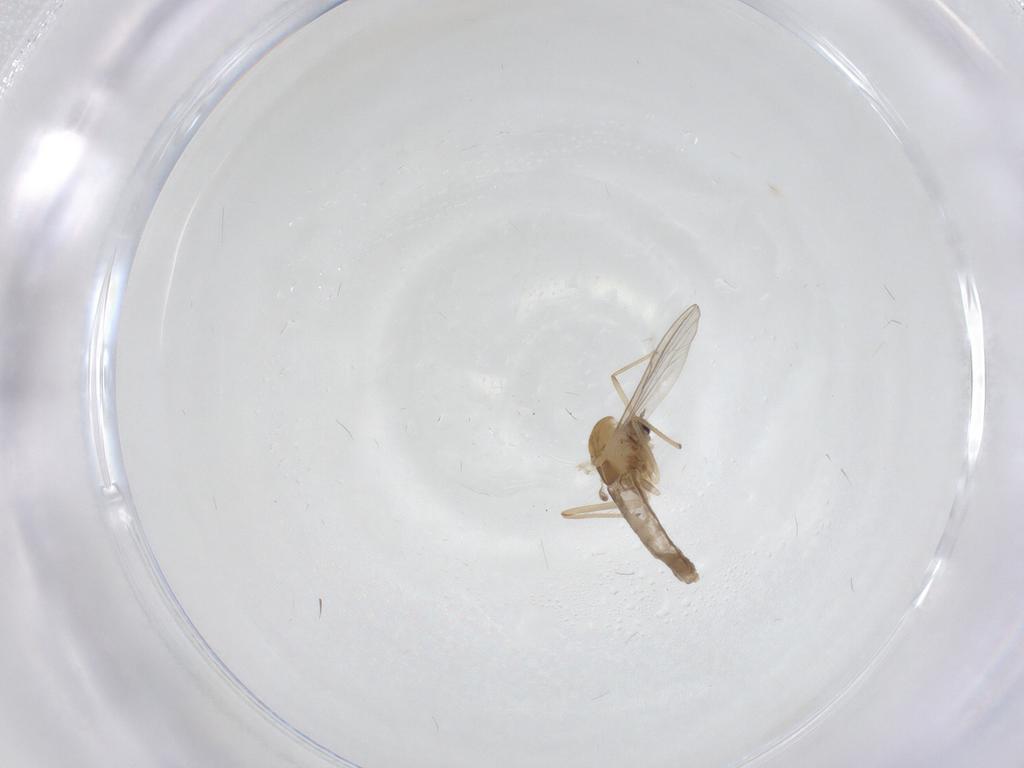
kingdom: Animalia
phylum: Arthropoda
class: Insecta
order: Diptera
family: Chironomidae
